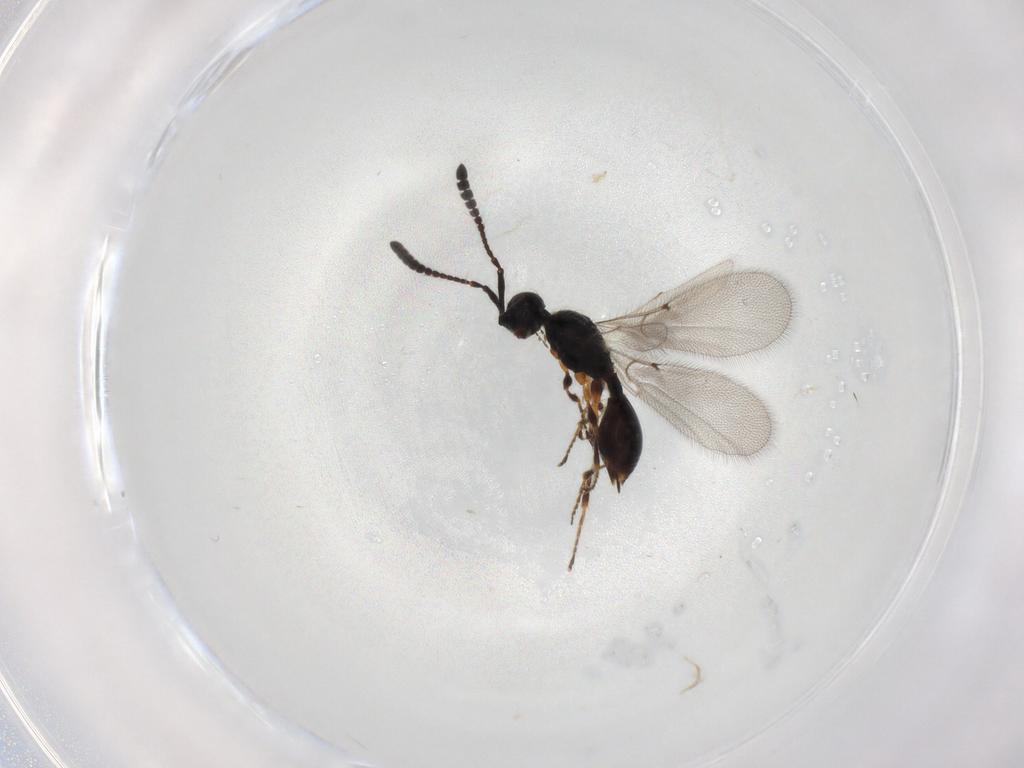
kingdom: Animalia
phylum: Arthropoda
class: Insecta
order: Hymenoptera
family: Diapriidae
